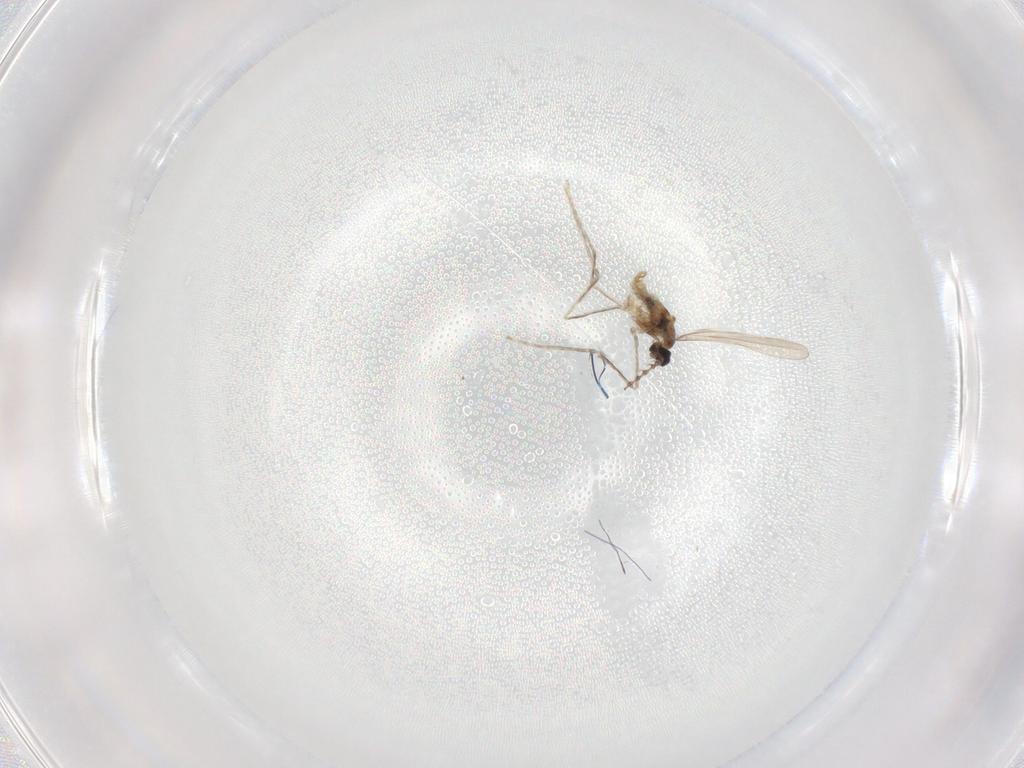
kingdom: Animalia
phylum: Arthropoda
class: Insecta
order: Diptera
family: Cecidomyiidae
